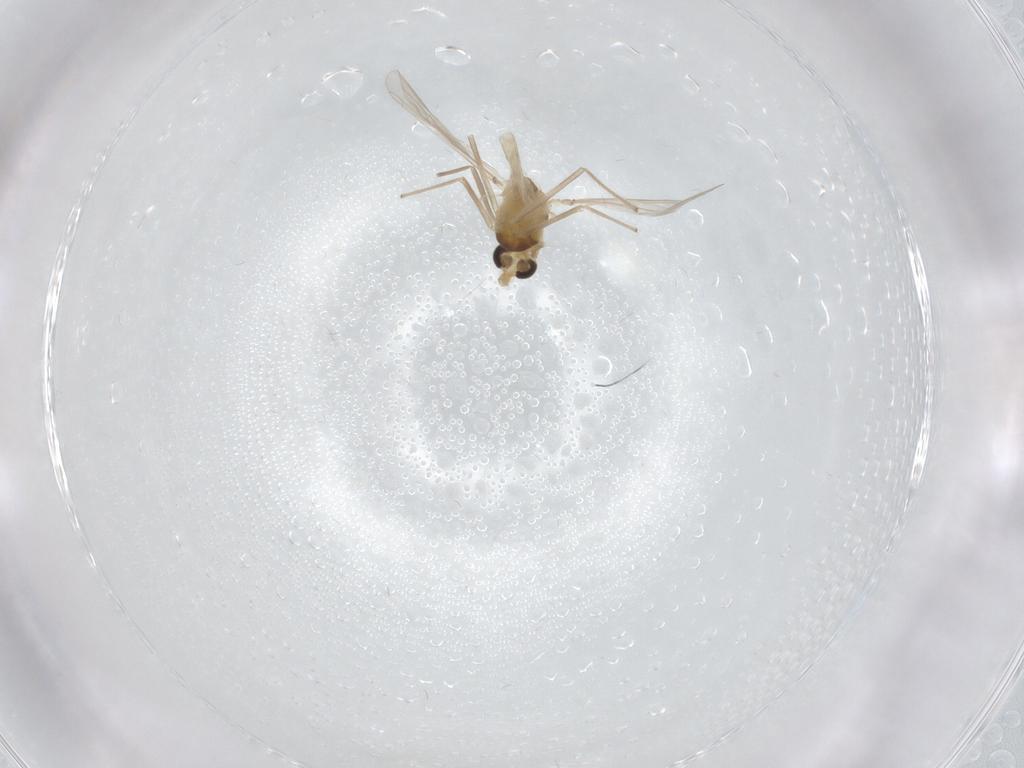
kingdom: Animalia
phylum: Arthropoda
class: Insecta
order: Diptera
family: Chironomidae
